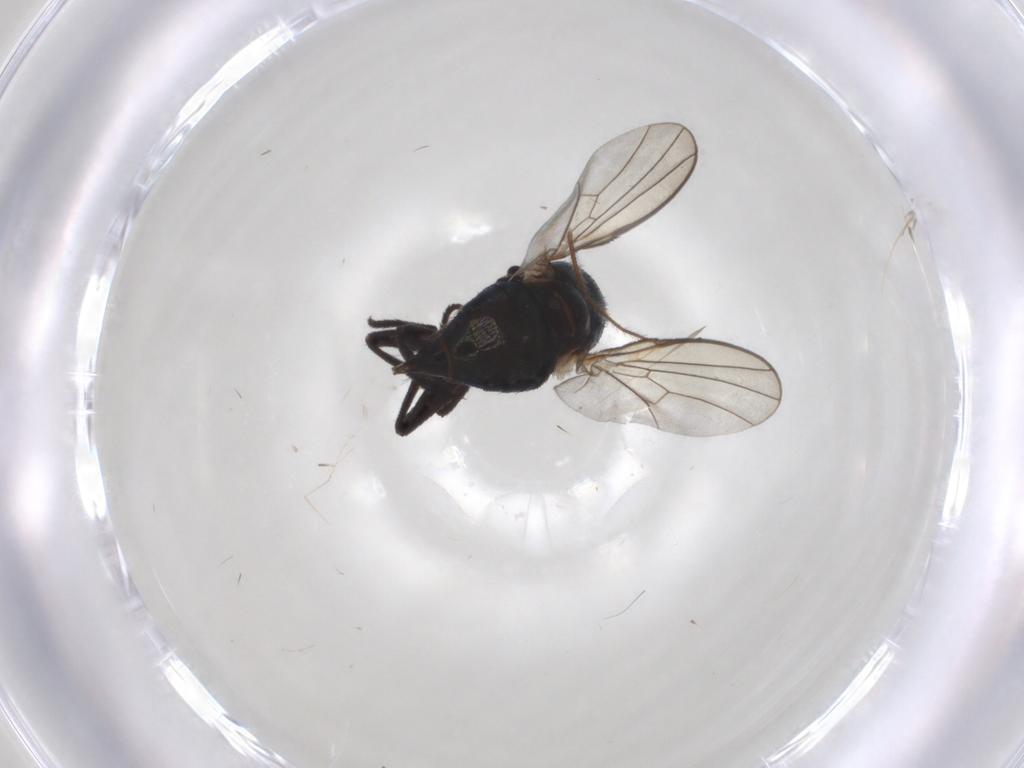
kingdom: Animalia
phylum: Arthropoda
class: Insecta
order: Diptera
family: Agromyzidae
